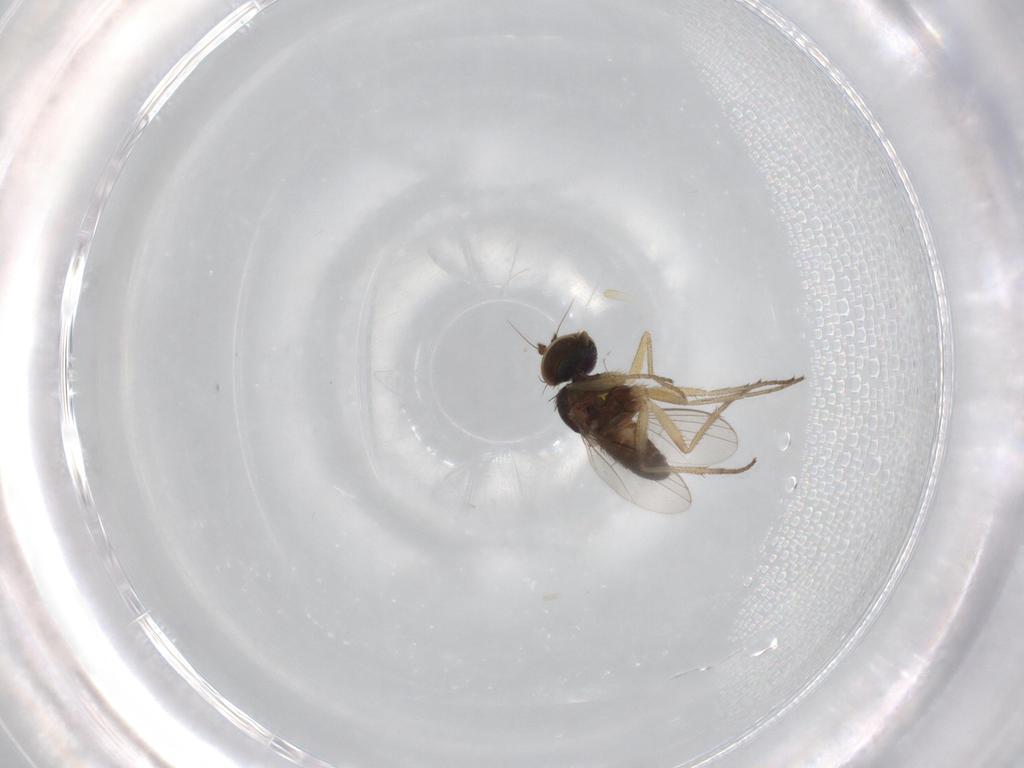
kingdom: Animalia
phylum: Arthropoda
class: Insecta
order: Diptera
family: Dolichopodidae
